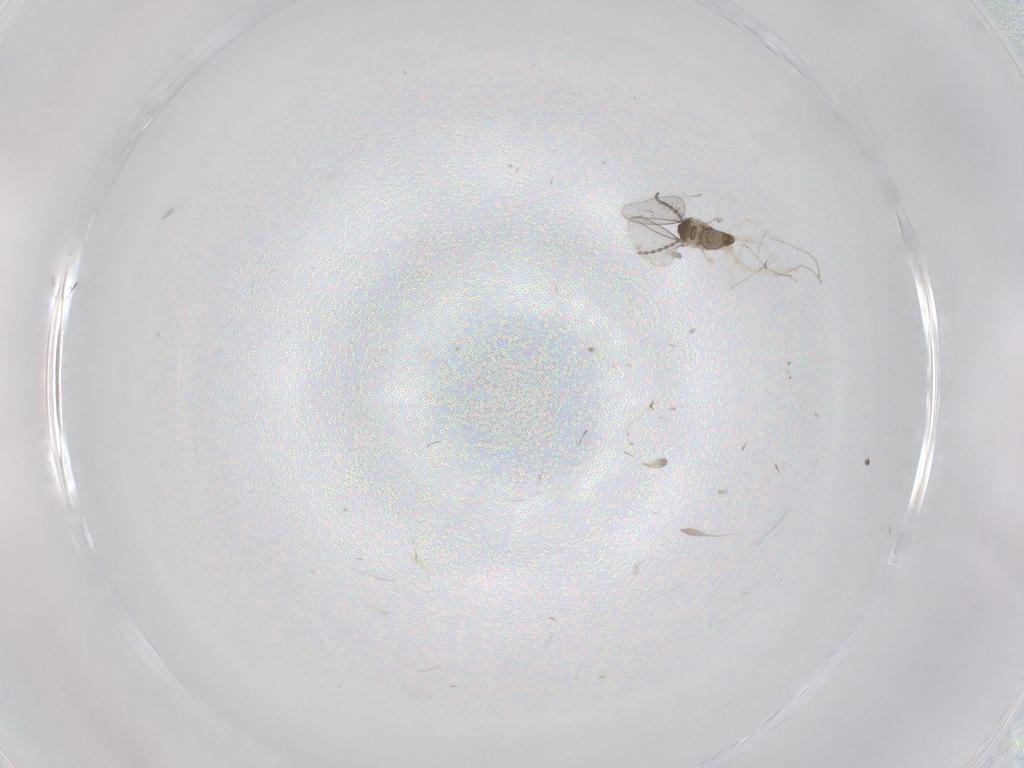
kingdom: Animalia
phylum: Arthropoda
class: Insecta
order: Diptera
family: Cecidomyiidae
